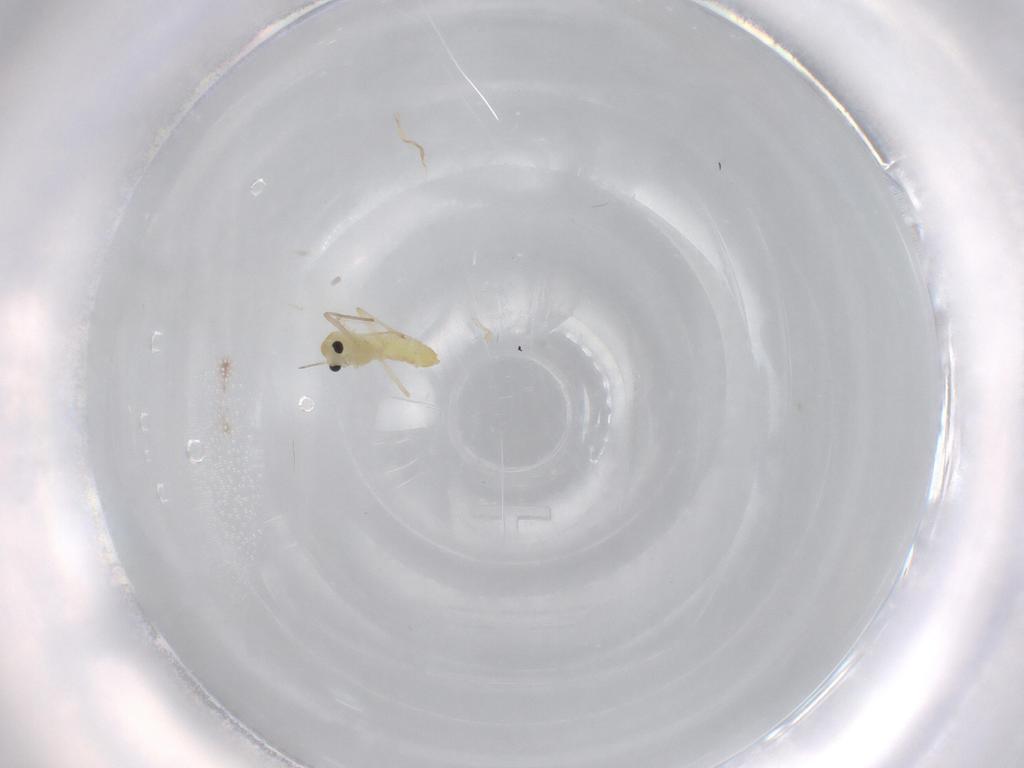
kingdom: Animalia
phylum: Arthropoda
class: Insecta
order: Diptera
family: Chironomidae
